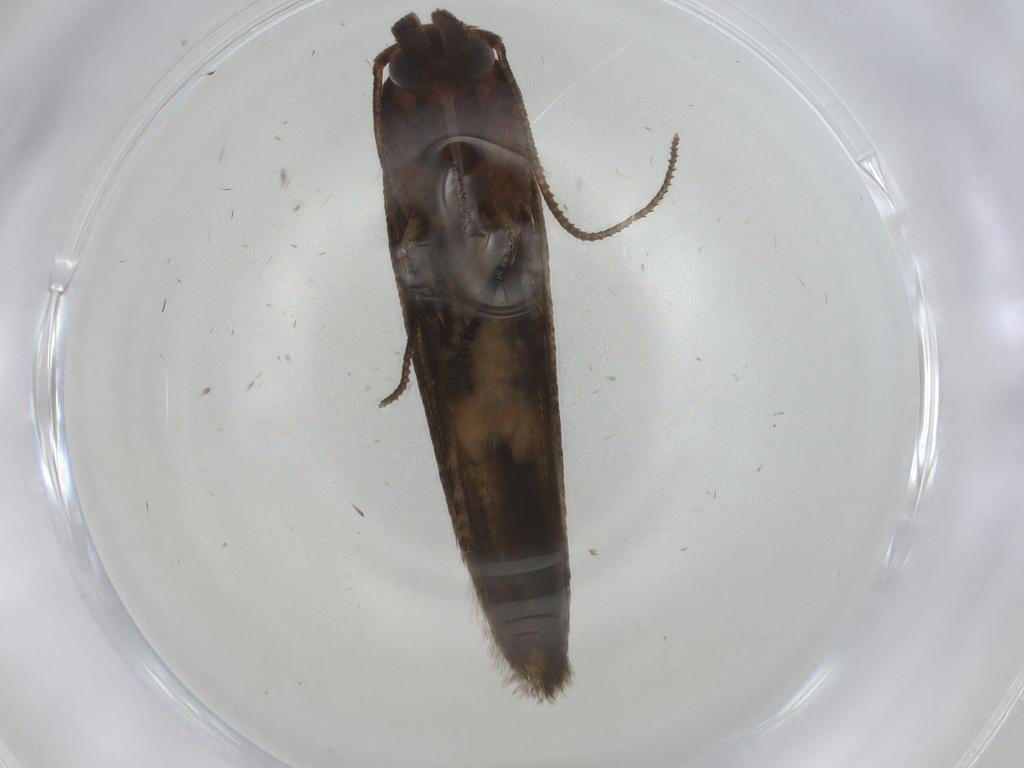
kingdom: Animalia
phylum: Arthropoda
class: Insecta
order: Lepidoptera
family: Blastobasidae
